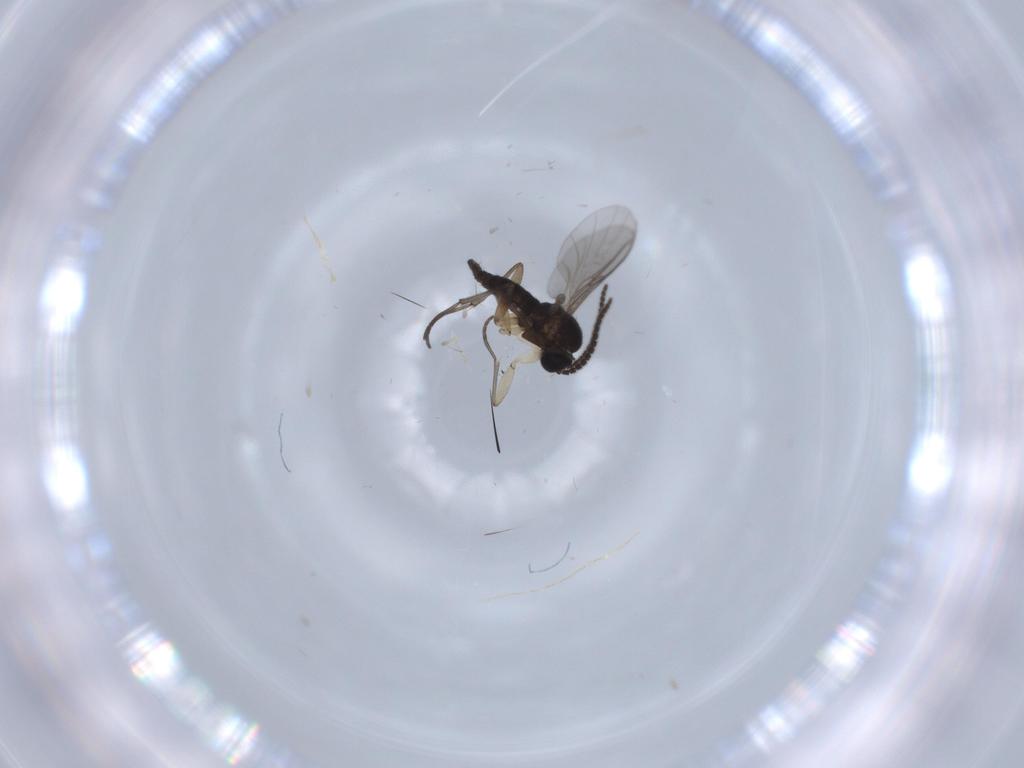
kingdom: Animalia
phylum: Arthropoda
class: Insecta
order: Diptera
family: Sciaridae
